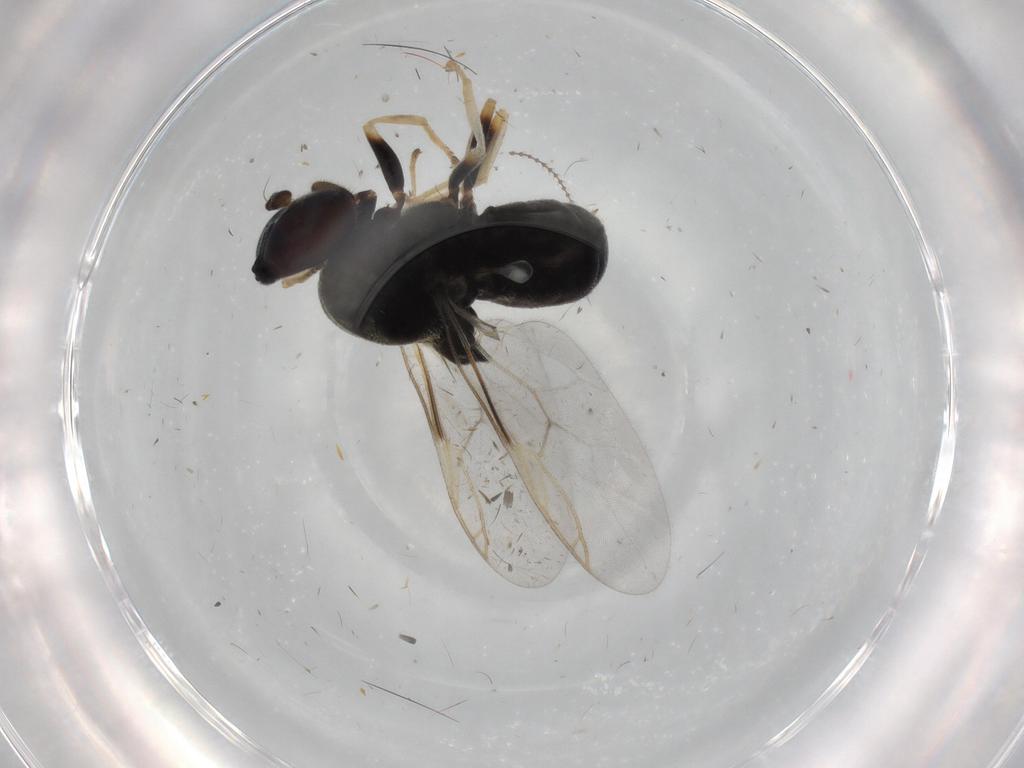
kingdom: Animalia
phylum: Arthropoda
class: Insecta
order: Diptera
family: Stratiomyidae
